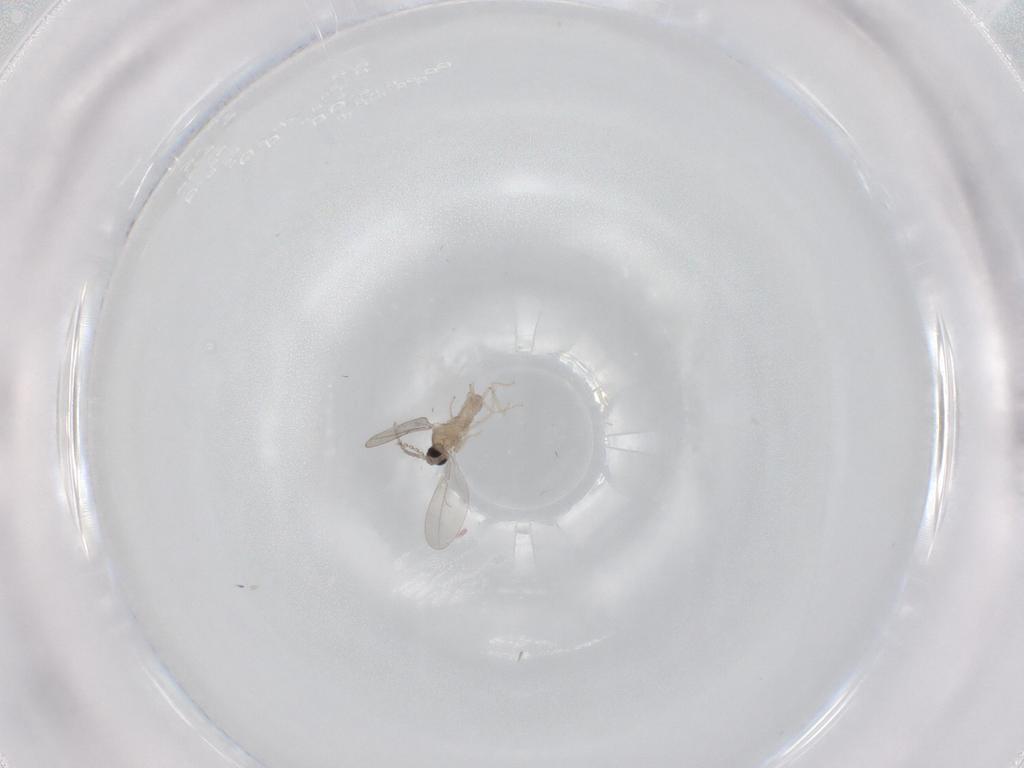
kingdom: Animalia
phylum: Arthropoda
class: Insecta
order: Diptera
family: Cecidomyiidae
